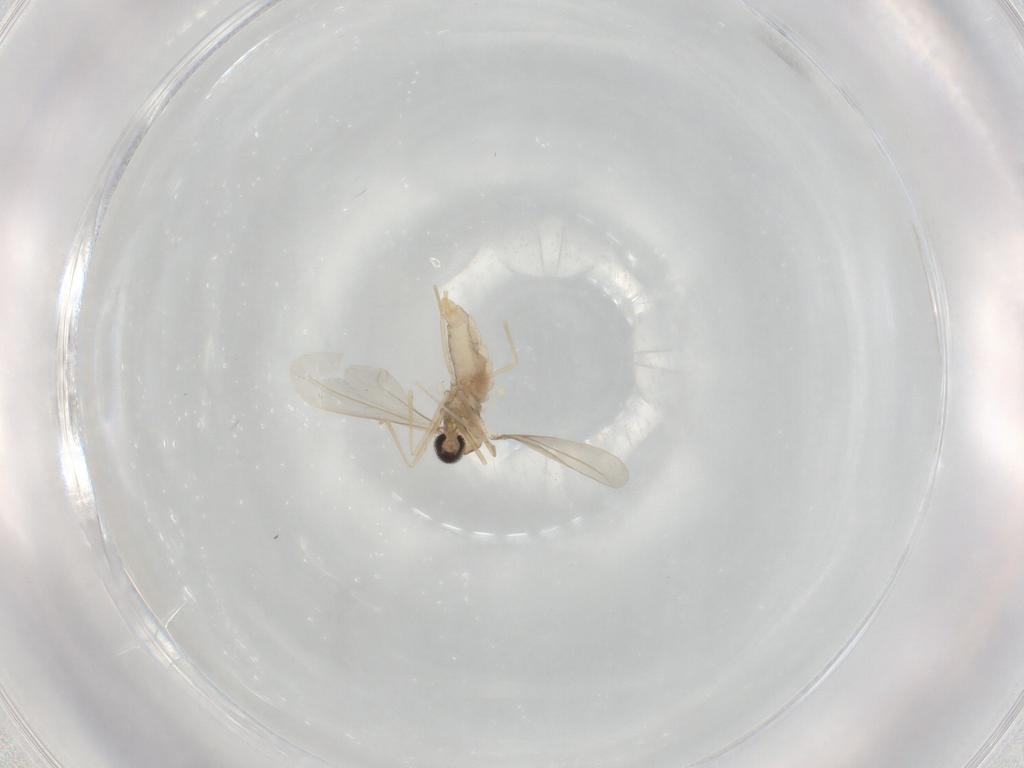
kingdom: Animalia
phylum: Arthropoda
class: Insecta
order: Diptera
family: Cecidomyiidae
